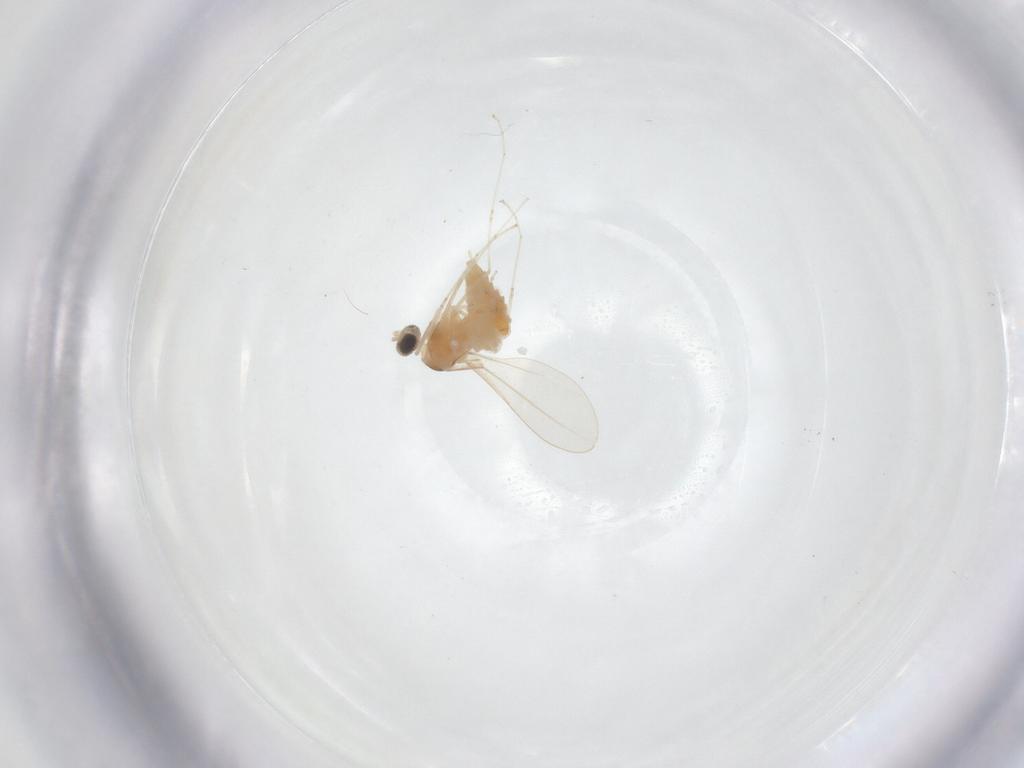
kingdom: Animalia
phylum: Arthropoda
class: Insecta
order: Diptera
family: Cecidomyiidae
